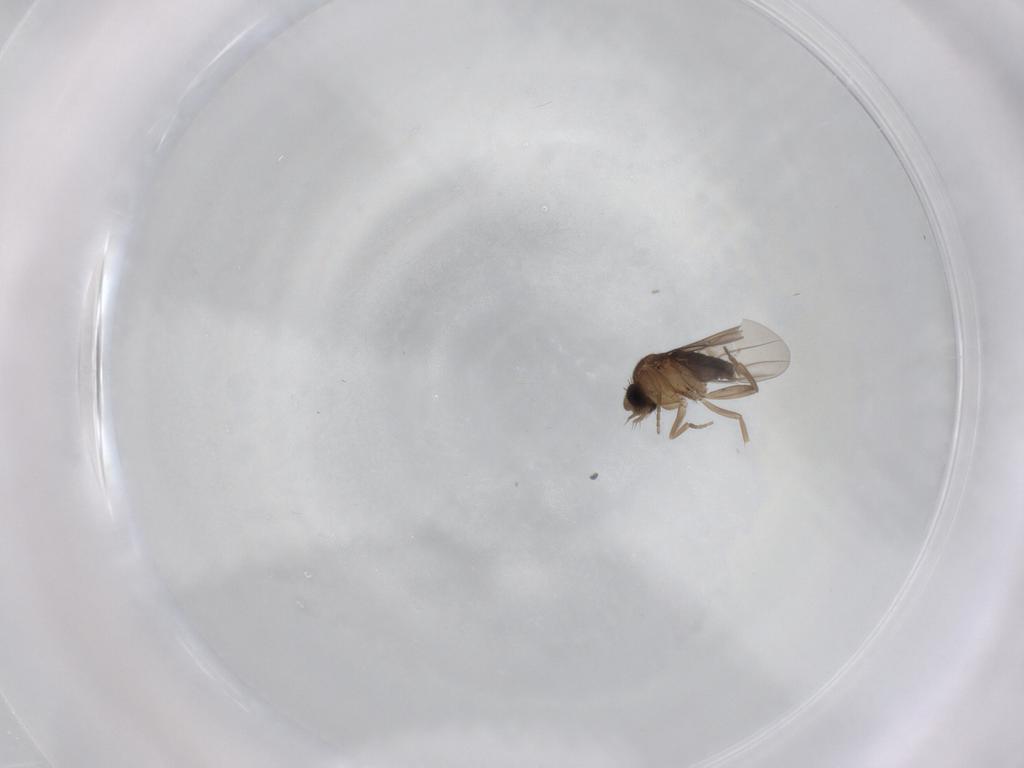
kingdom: Animalia
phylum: Arthropoda
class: Insecta
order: Diptera
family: Phoridae
